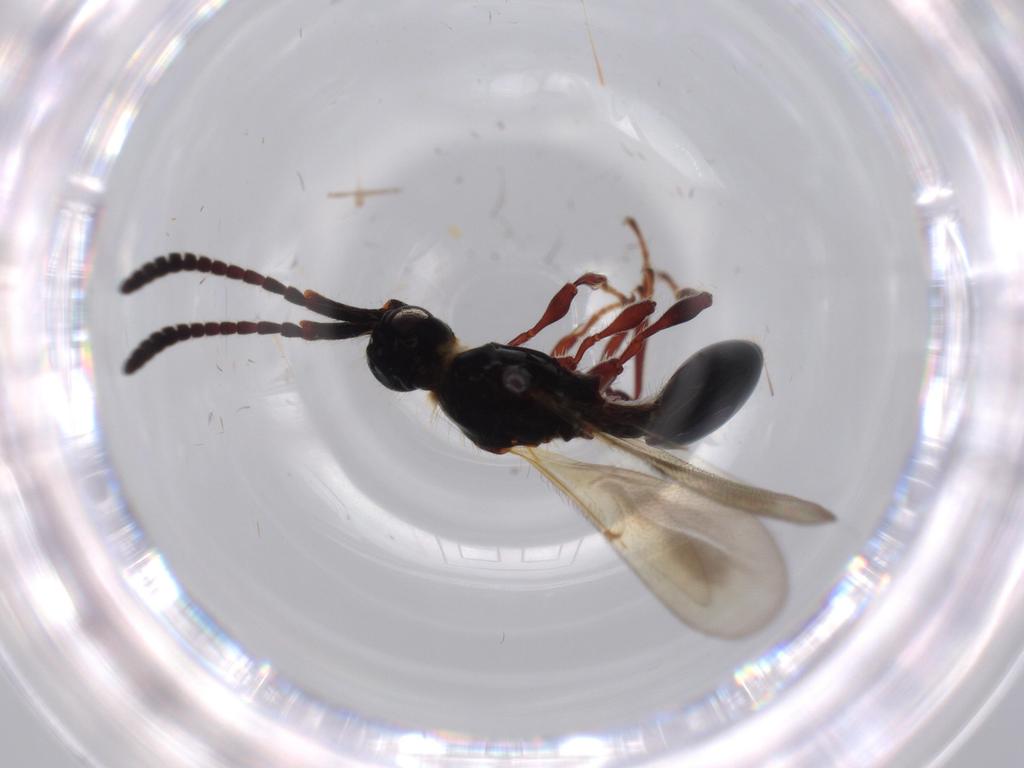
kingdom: Animalia
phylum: Arthropoda
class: Insecta
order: Hymenoptera
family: Diapriidae
